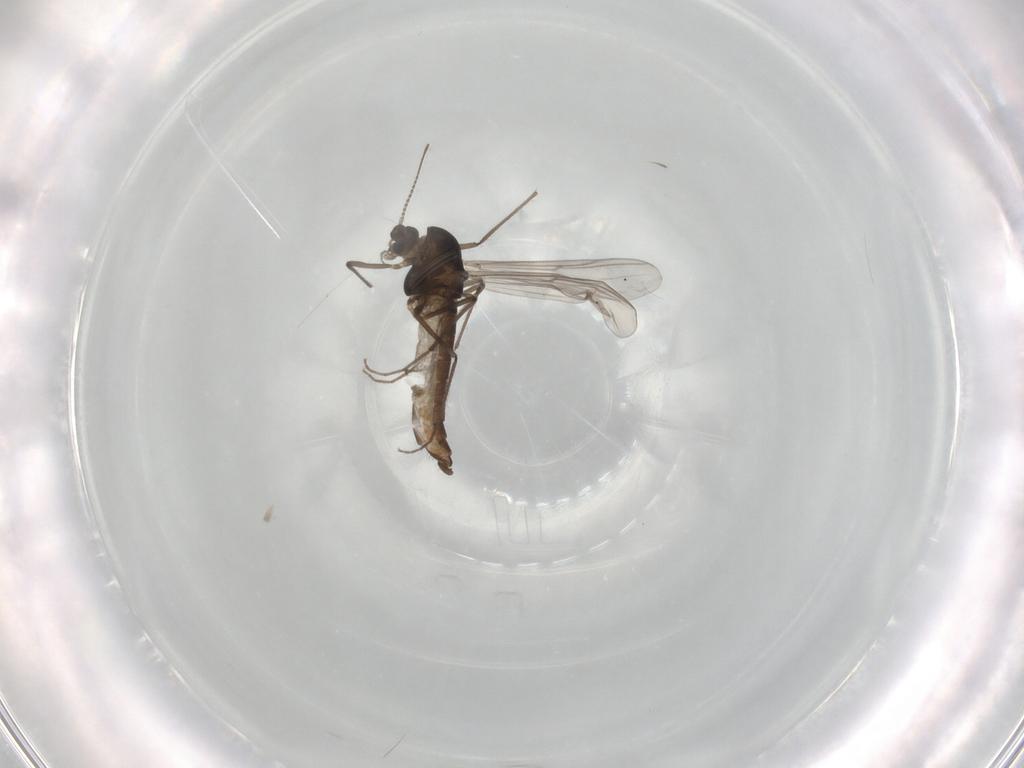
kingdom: Animalia
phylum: Arthropoda
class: Insecta
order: Diptera
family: Chironomidae
